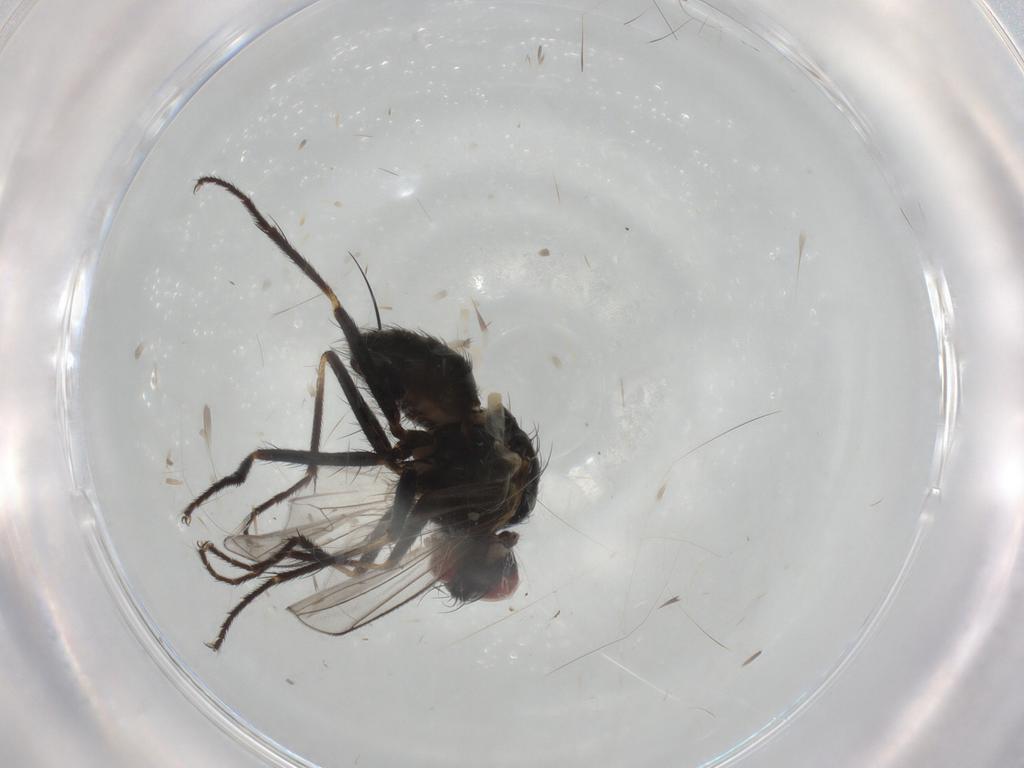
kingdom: Animalia
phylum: Arthropoda
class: Insecta
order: Diptera
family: Muscidae
